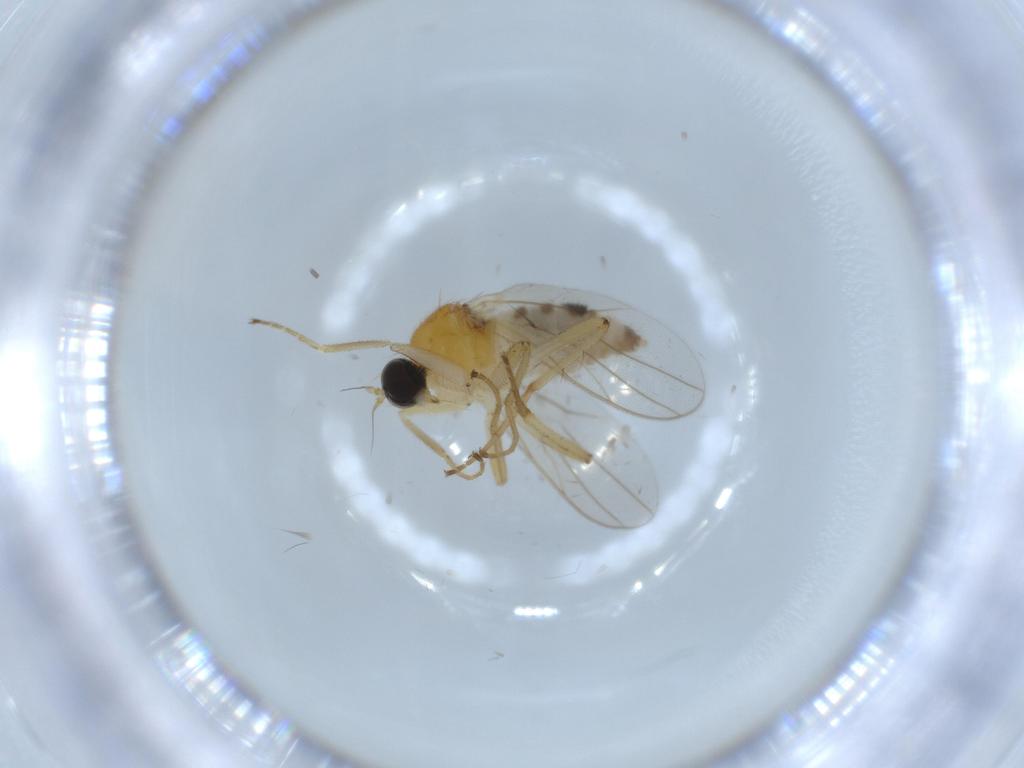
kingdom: Animalia
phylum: Arthropoda
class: Insecta
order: Diptera
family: Hybotidae
